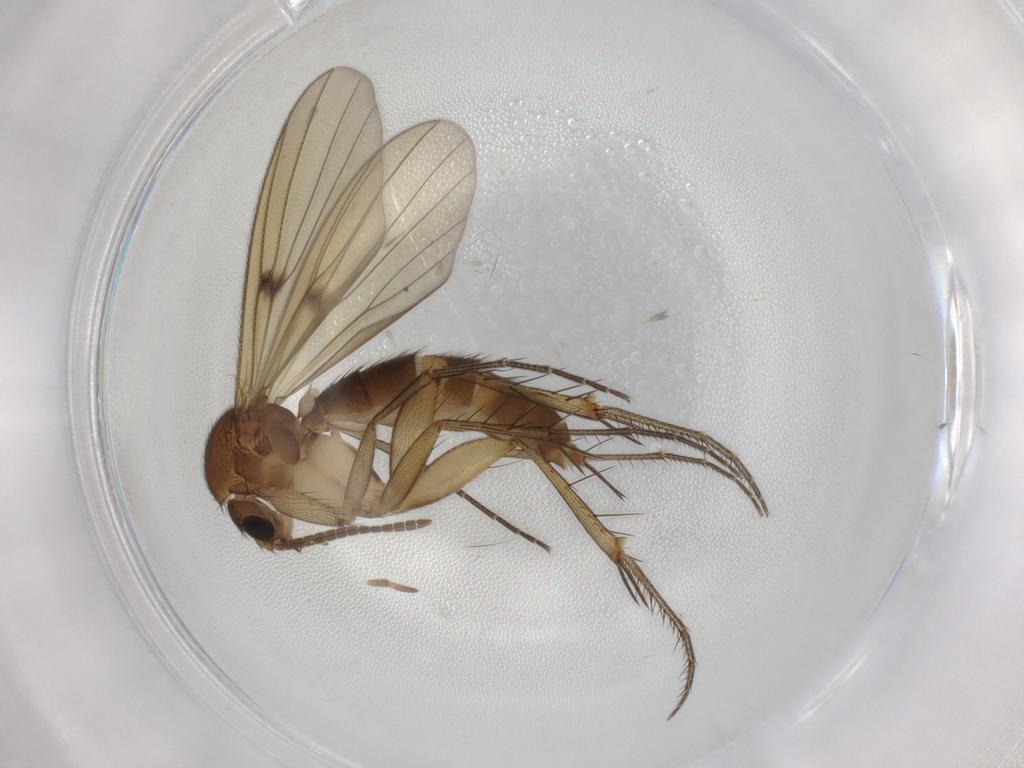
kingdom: Animalia
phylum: Arthropoda
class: Insecta
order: Diptera
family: Mycetophilidae
